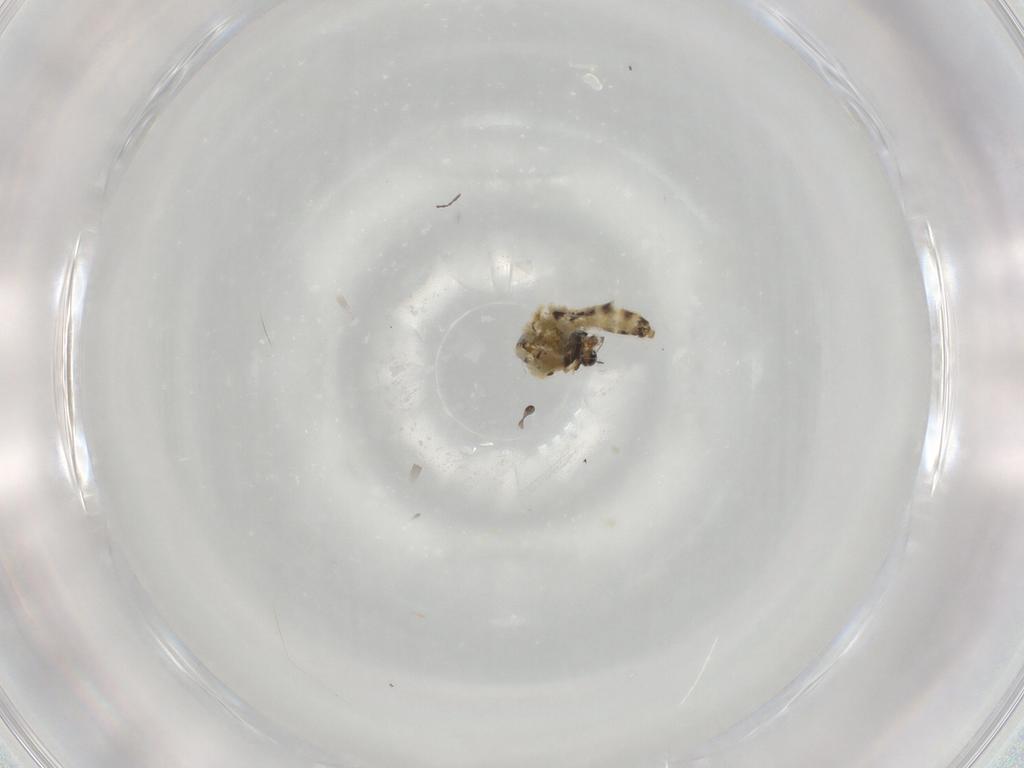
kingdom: Animalia
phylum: Arthropoda
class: Insecta
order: Diptera
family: Chironomidae
